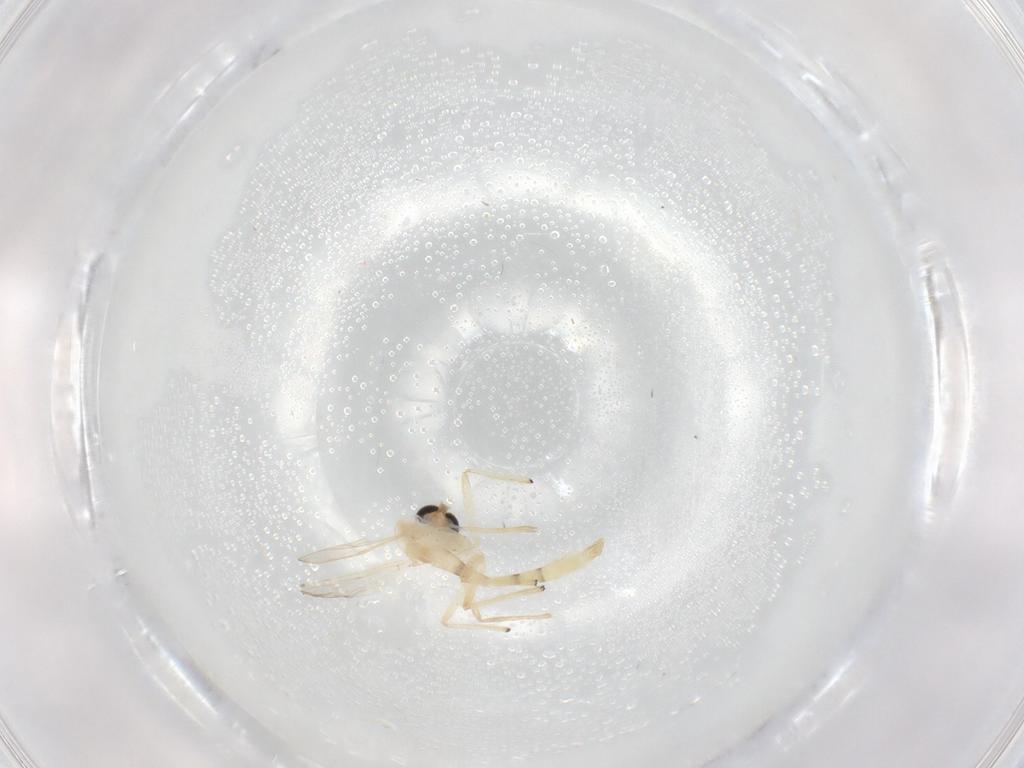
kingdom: Animalia
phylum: Arthropoda
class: Insecta
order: Diptera
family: Chironomidae
